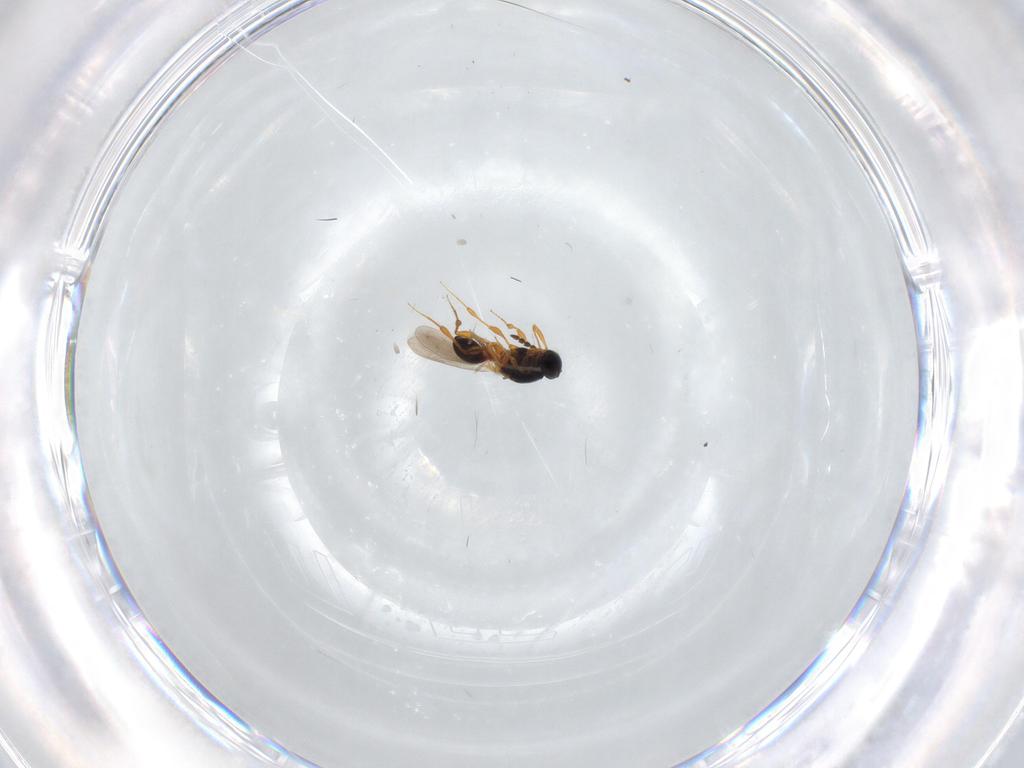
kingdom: Animalia
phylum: Arthropoda
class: Insecta
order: Hymenoptera
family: Platygastridae
